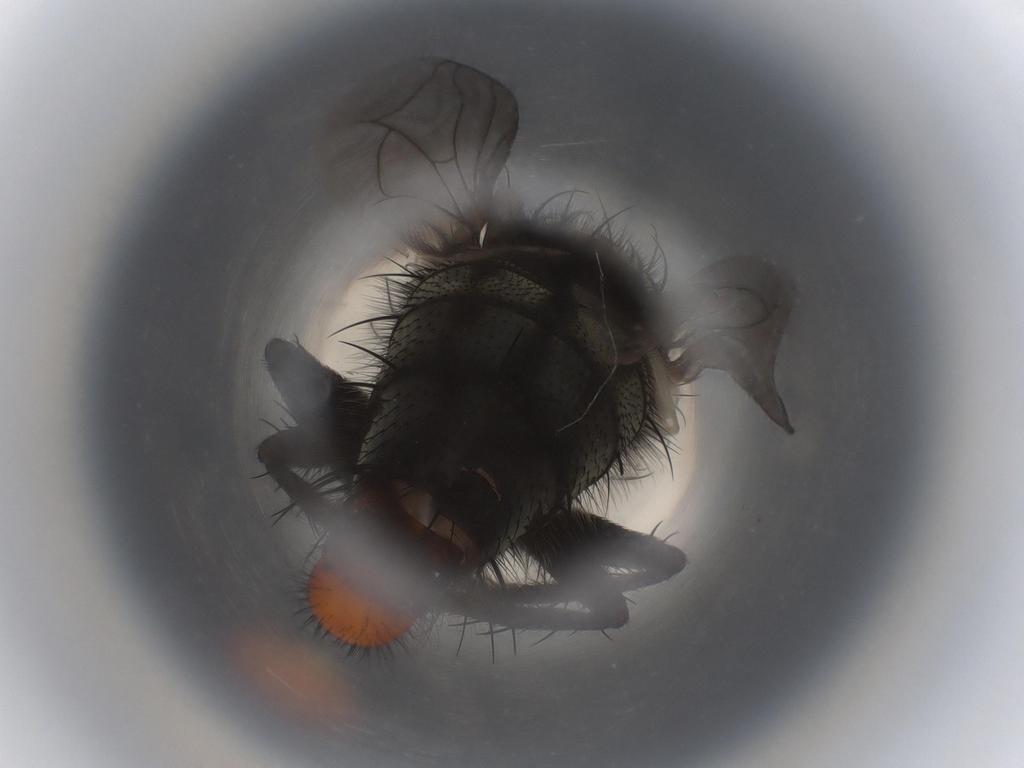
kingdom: Animalia
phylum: Arthropoda
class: Insecta
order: Diptera
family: Sarcophagidae
